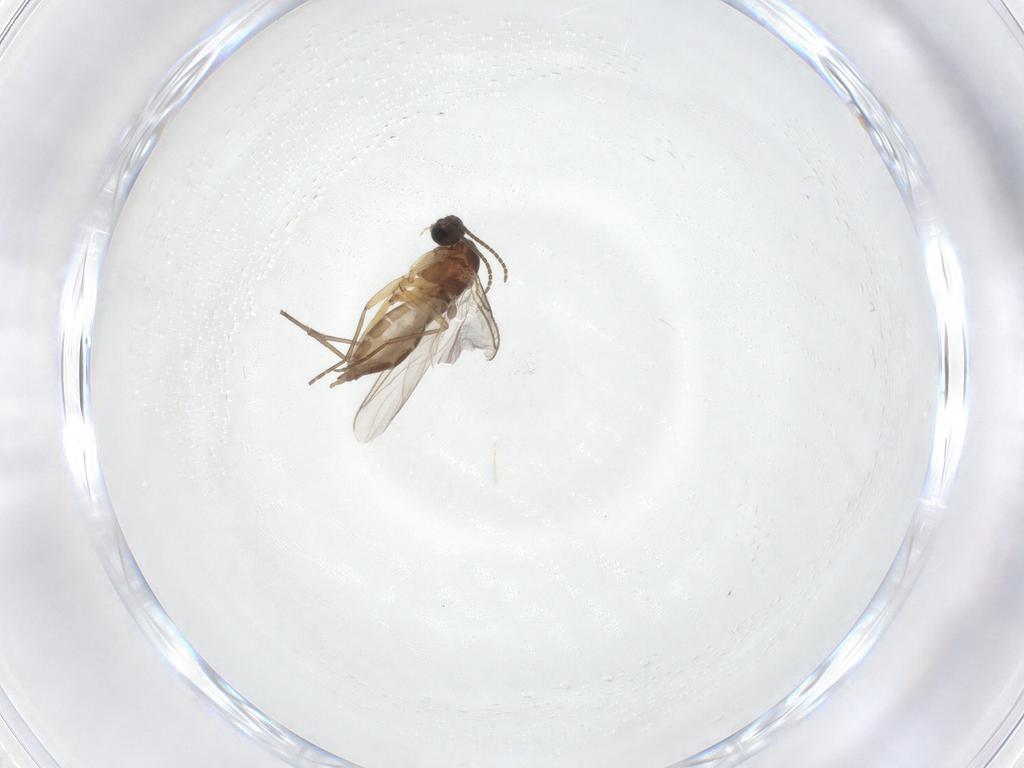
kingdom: Animalia
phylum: Arthropoda
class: Insecta
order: Diptera
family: Sciaridae
